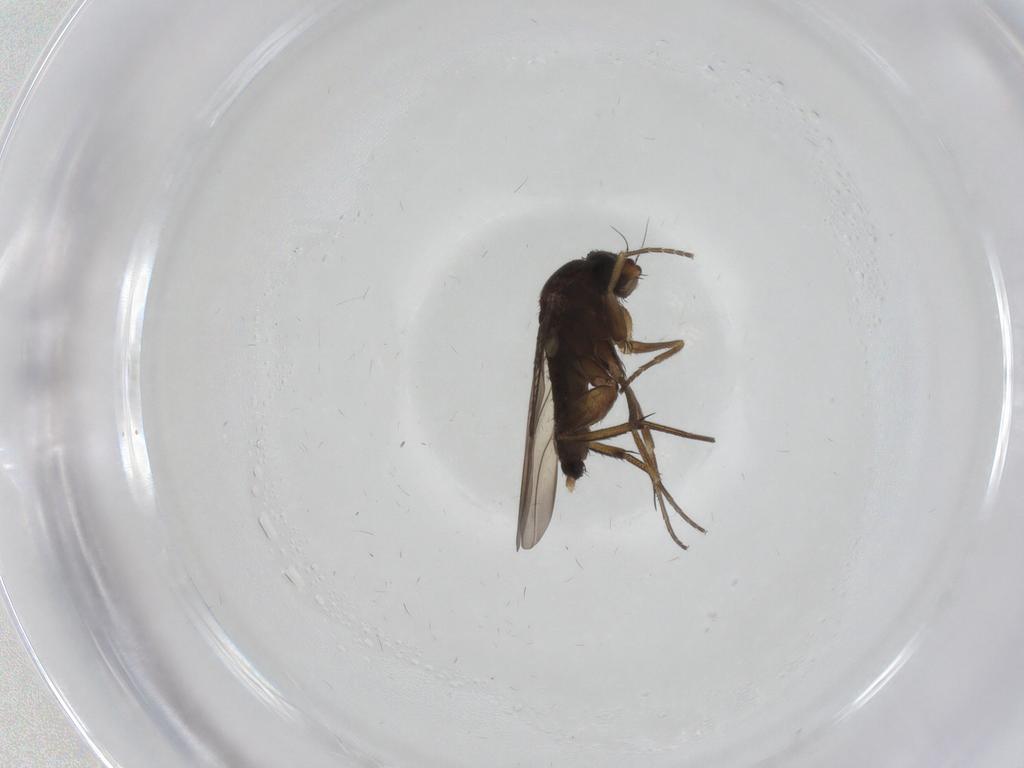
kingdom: Animalia
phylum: Arthropoda
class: Insecta
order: Diptera
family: Phoridae
